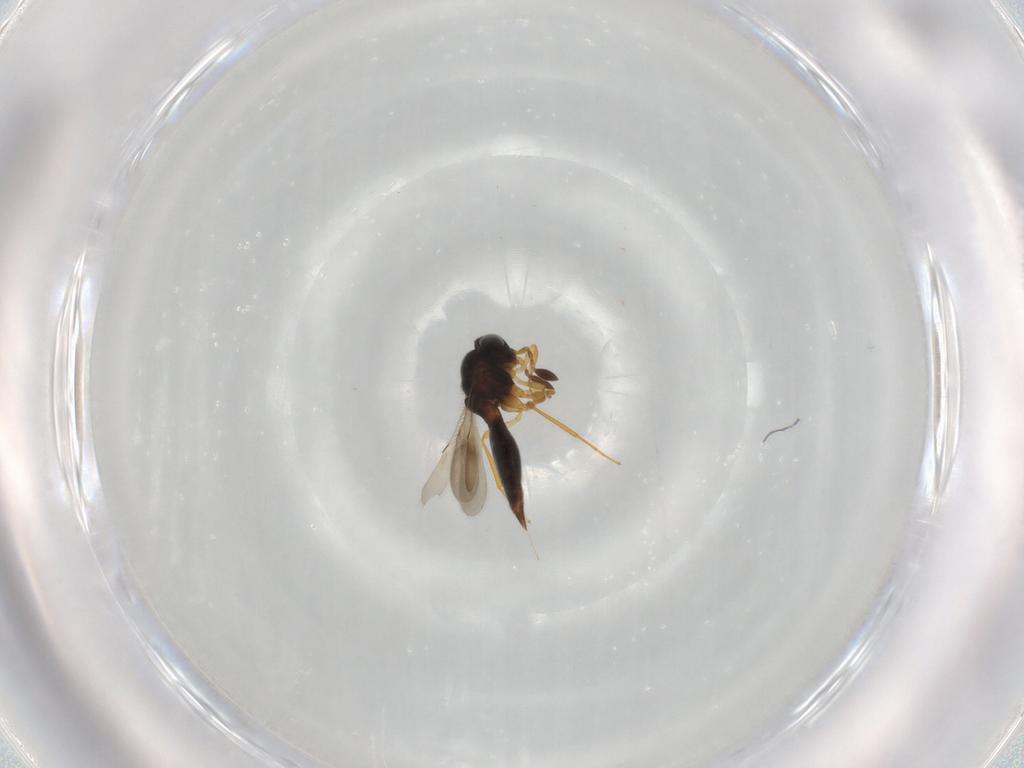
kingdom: Animalia
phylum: Arthropoda
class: Insecta
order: Hymenoptera
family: Scelionidae
